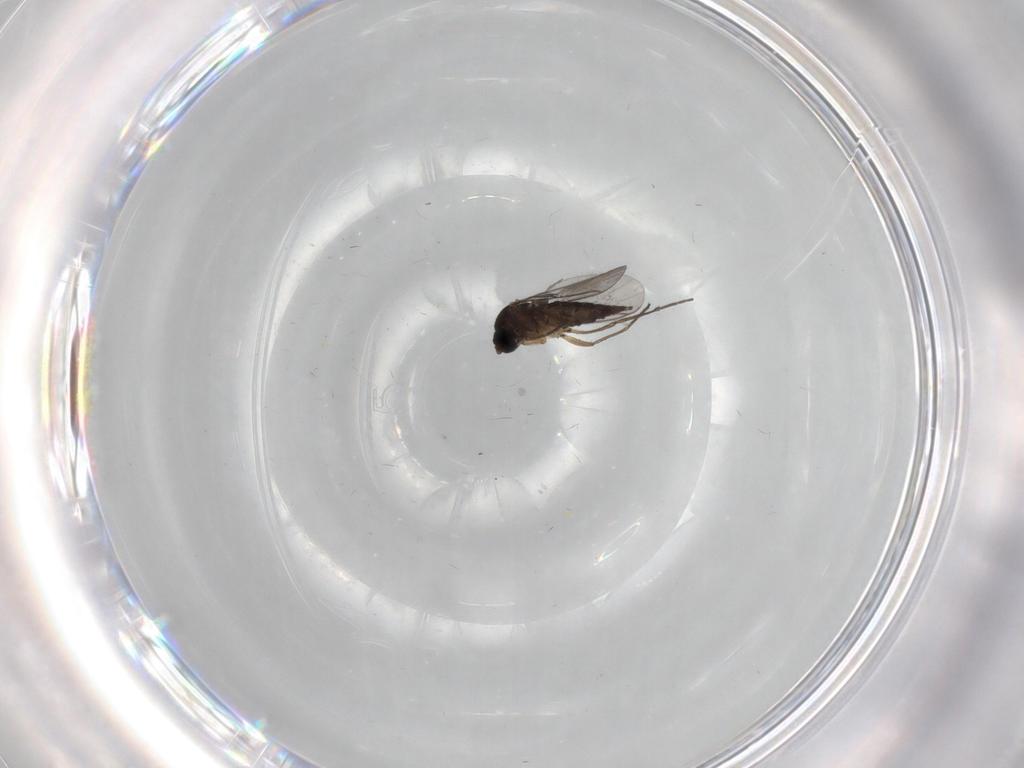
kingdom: Animalia
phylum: Arthropoda
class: Insecta
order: Diptera
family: Sciaridae
